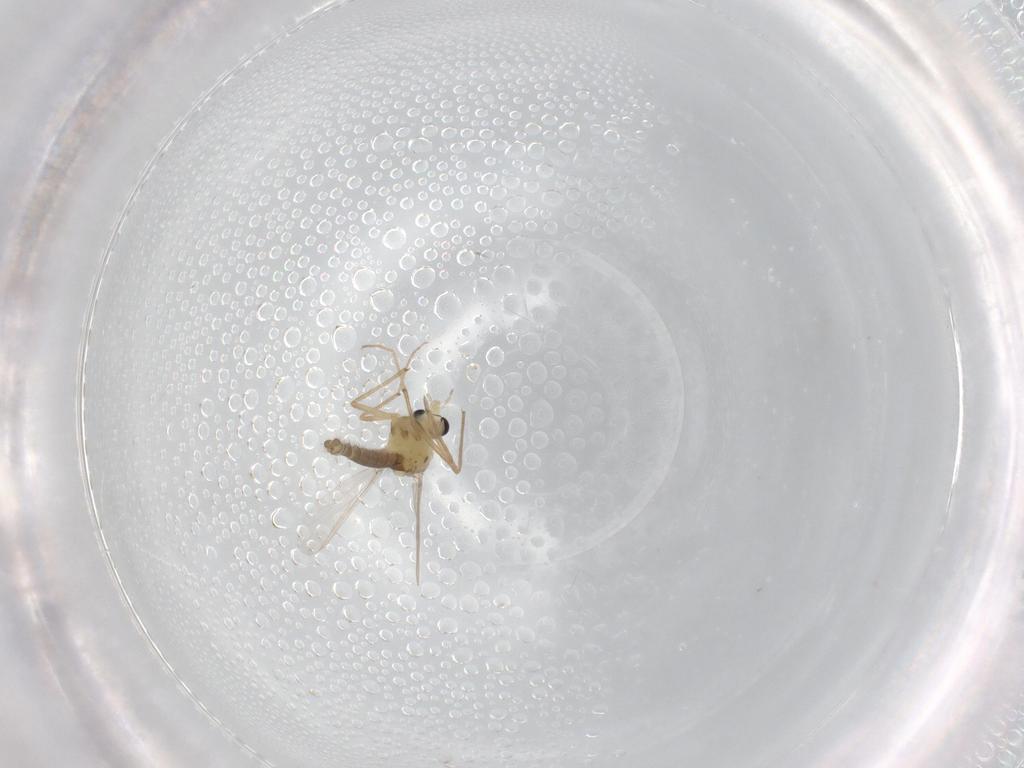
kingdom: Animalia
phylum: Arthropoda
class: Insecta
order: Diptera
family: Chironomidae
